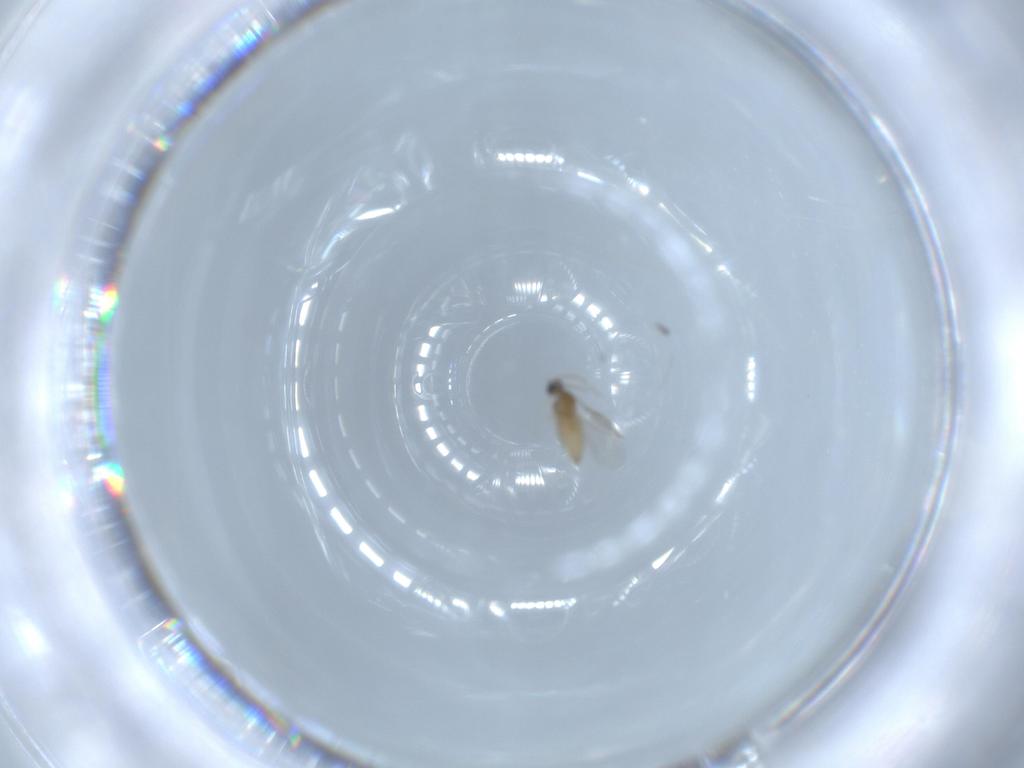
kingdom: Animalia
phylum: Arthropoda
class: Insecta
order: Diptera
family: Cecidomyiidae
